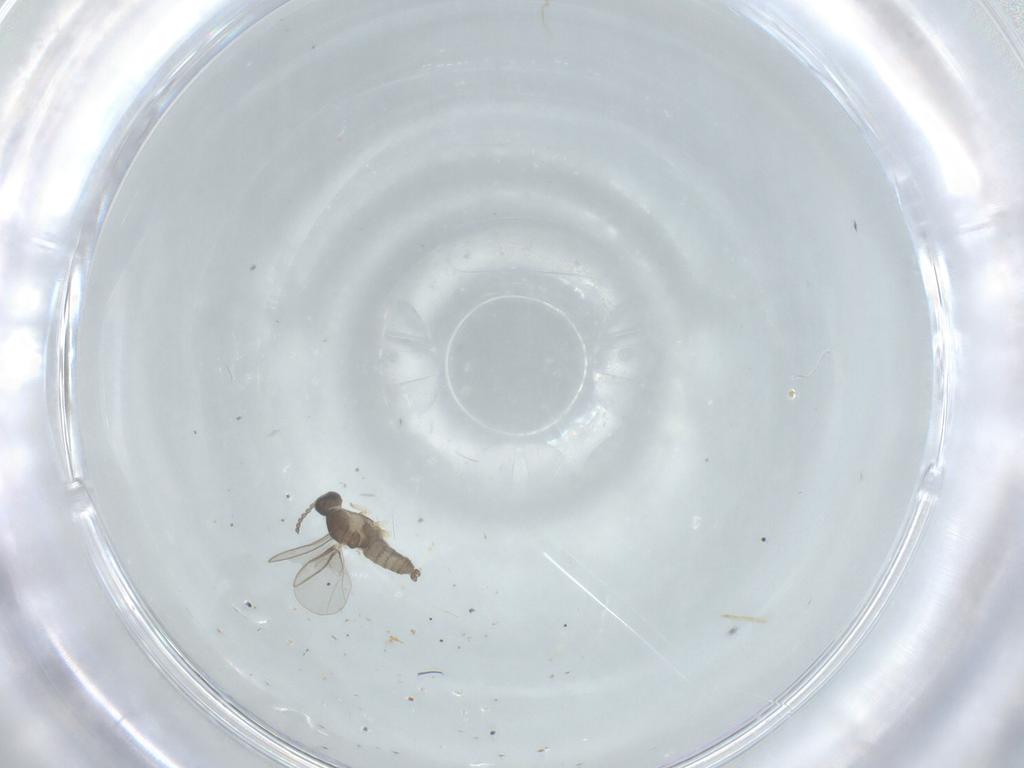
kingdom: Animalia
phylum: Arthropoda
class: Insecta
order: Diptera
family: Cecidomyiidae
